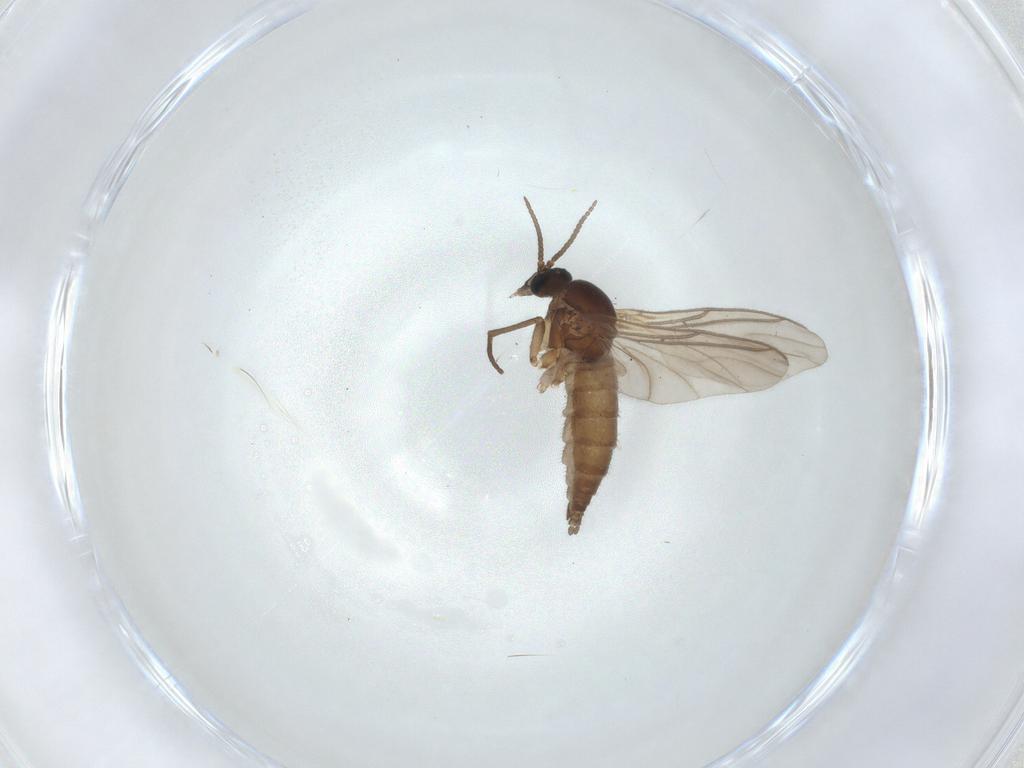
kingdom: Animalia
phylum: Arthropoda
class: Insecta
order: Diptera
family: Sciaridae
